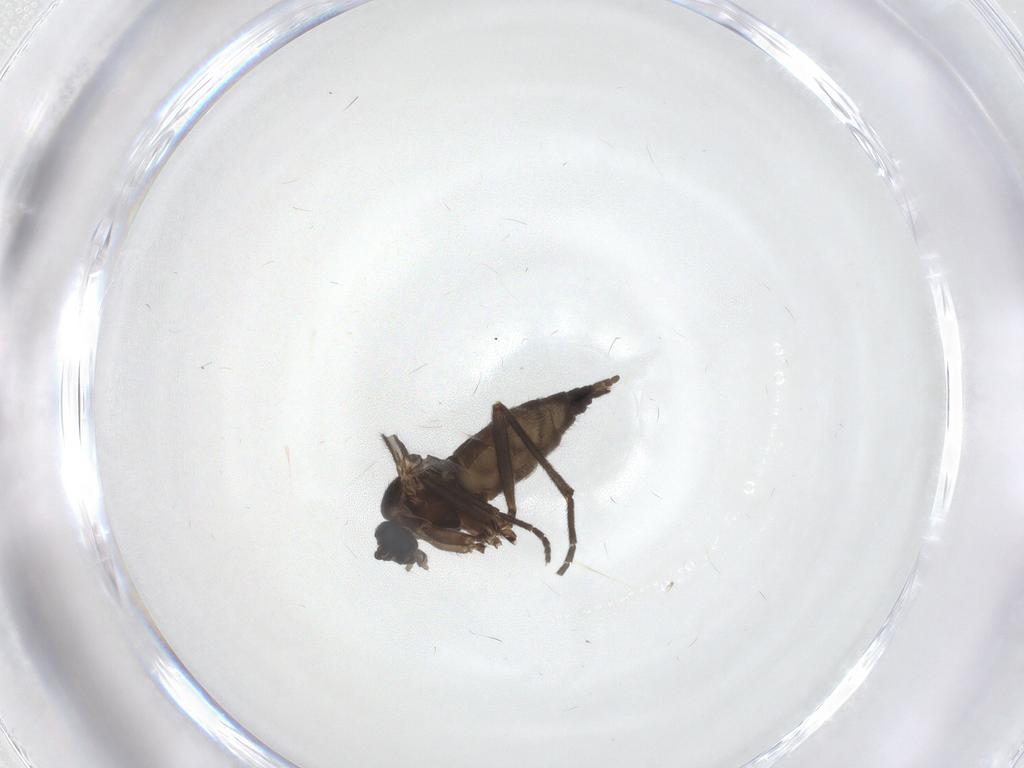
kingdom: Animalia
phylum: Arthropoda
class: Insecta
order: Diptera
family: Sciaridae
